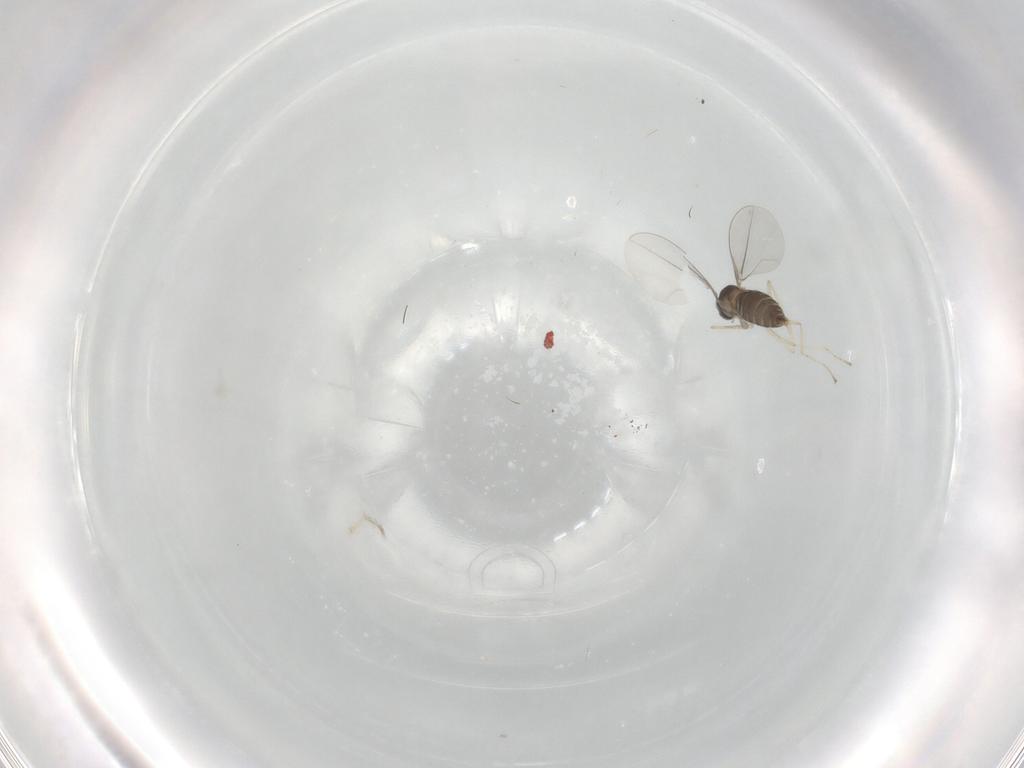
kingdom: Animalia
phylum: Arthropoda
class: Insecta
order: Diptera
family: Cecidomyiidae
